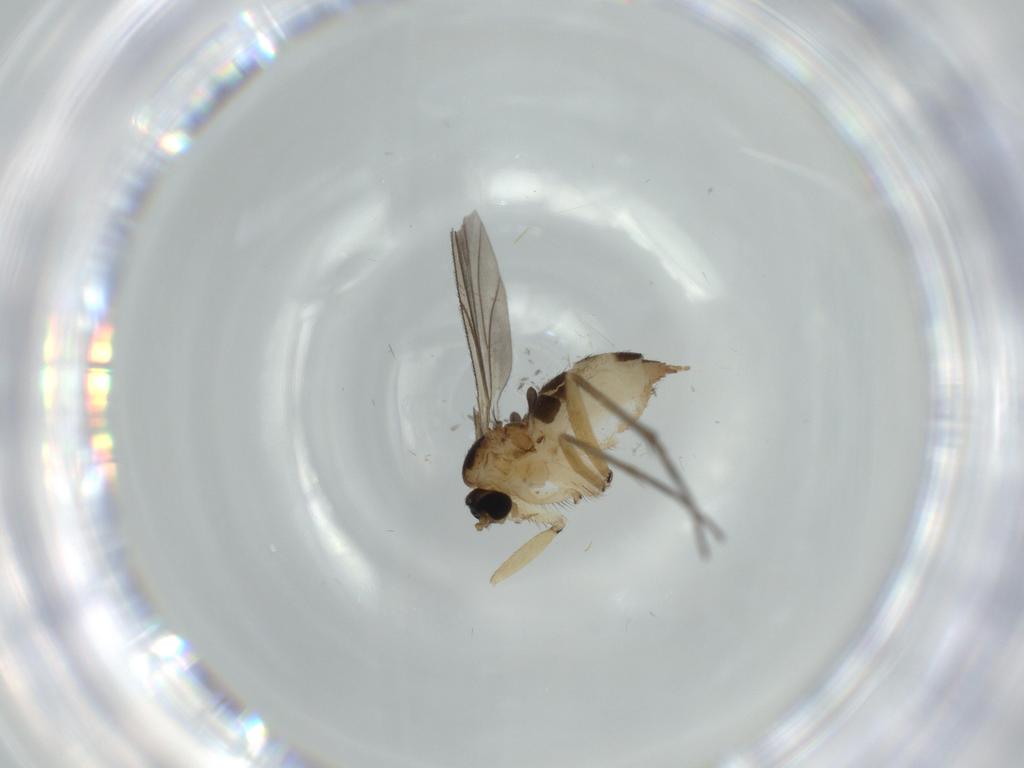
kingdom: Animalia
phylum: Arthropoda
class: Insecta
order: Diptera
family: Sciaridae
